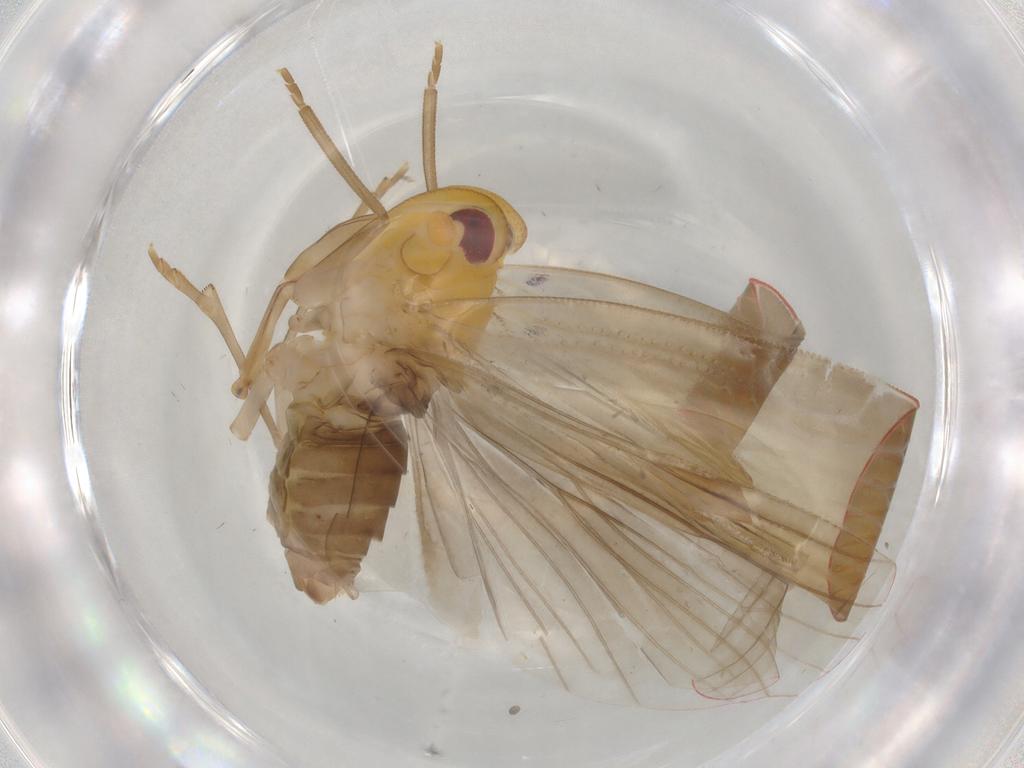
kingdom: Animalia
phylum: Arthropoda
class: Insecta
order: Hemiptera
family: Derbidae
